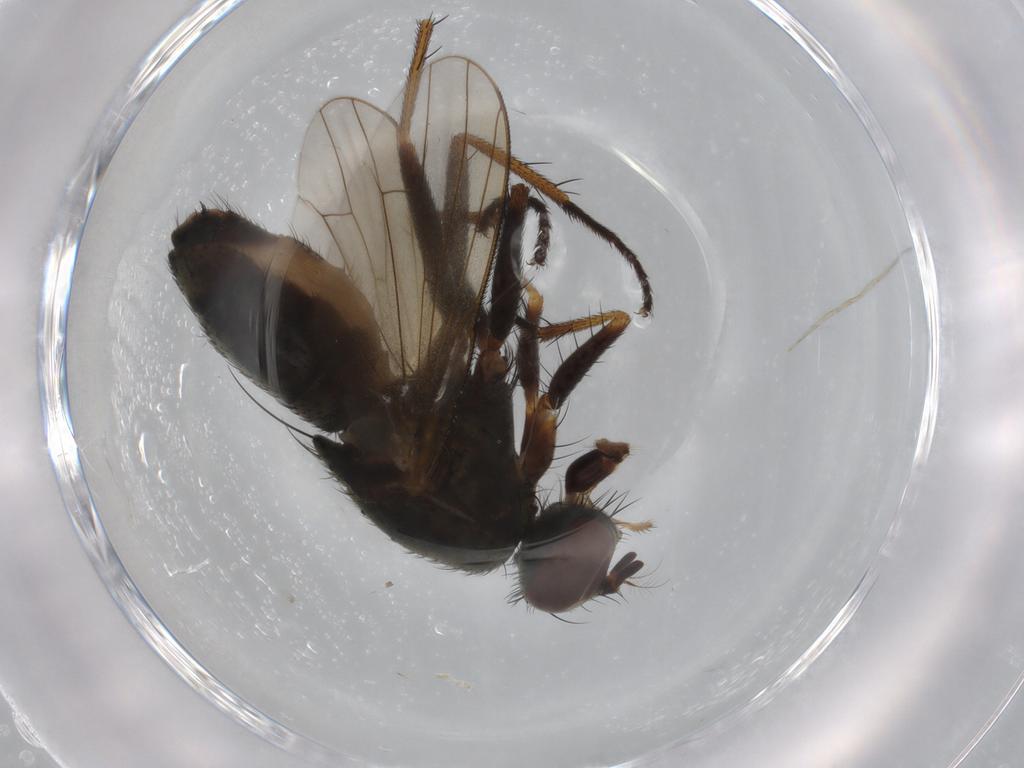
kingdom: Animalia
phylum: Arthropoda
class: Insecta
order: Diptera
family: Muscidae
